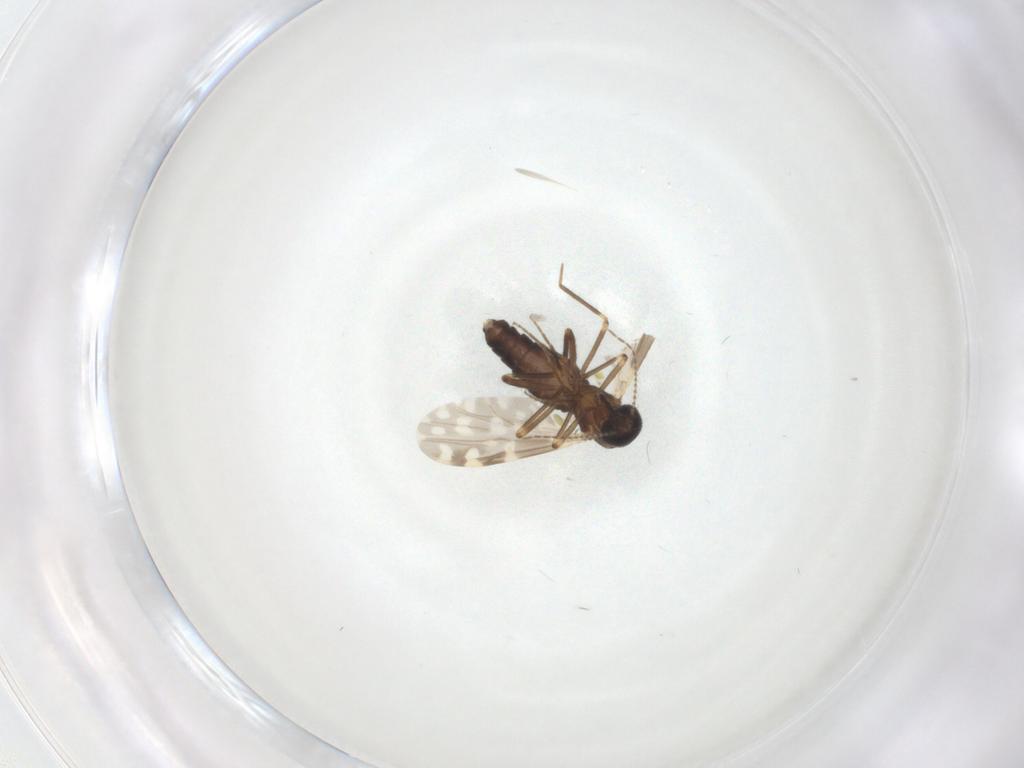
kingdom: Animalia
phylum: Arthropoda
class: Insecta
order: Diptera
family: Ceratopogonidae
